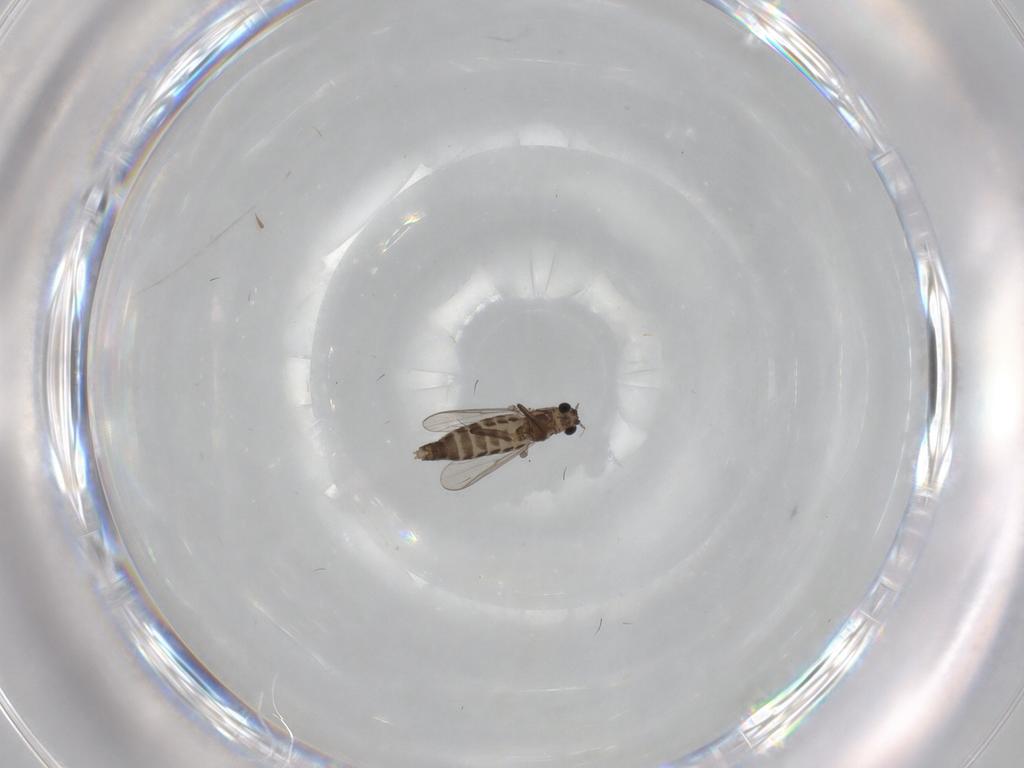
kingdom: Animalia
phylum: Arthropoda
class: Insecta
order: Diptera
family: Chironomidae
